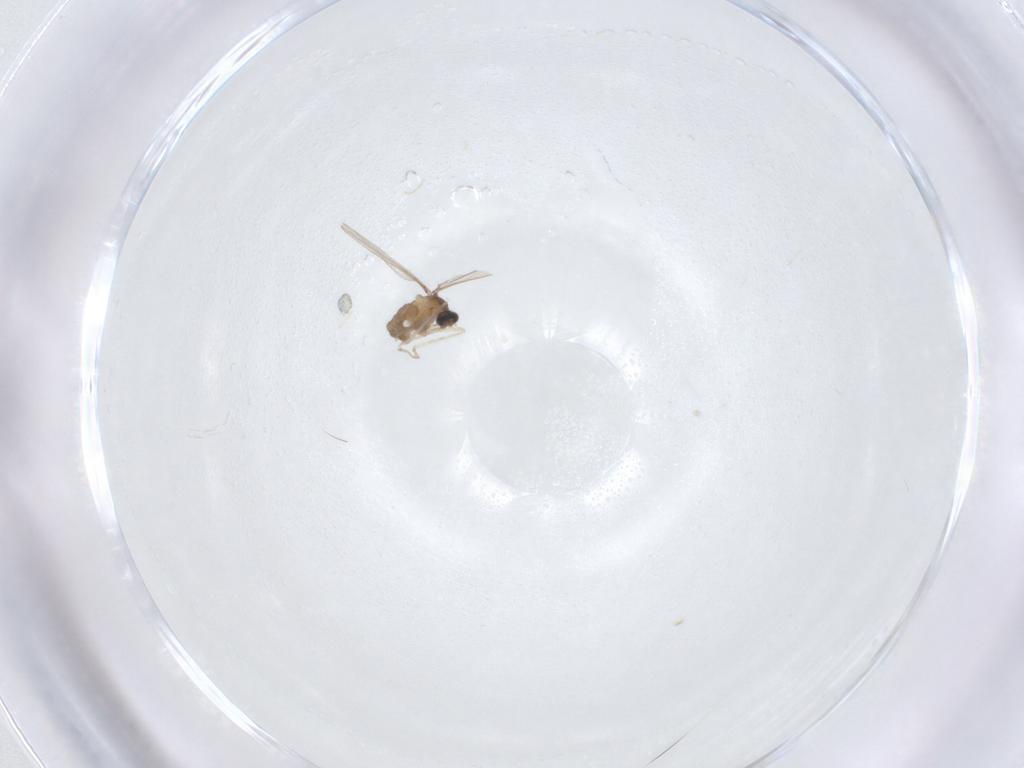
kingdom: Animalia
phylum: Arthropoda
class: Insecta
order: Diptera
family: Cecidomyiidae
